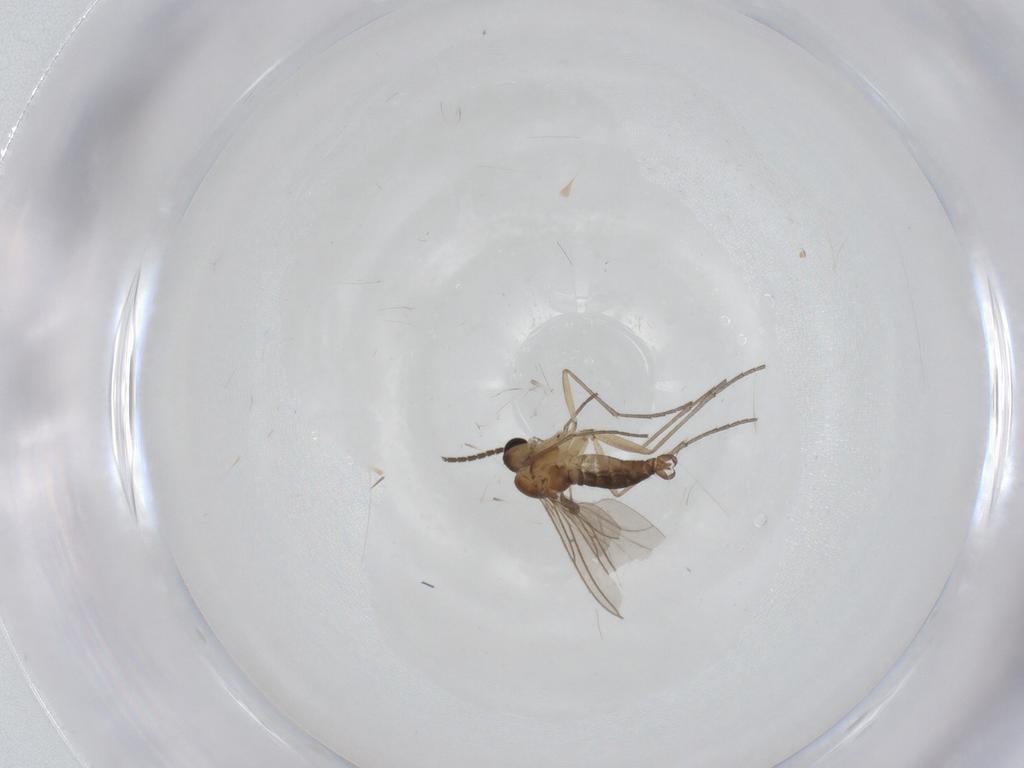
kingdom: Animalia
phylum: Arthropoda
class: Insecta
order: Diptera
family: Sciaridae
